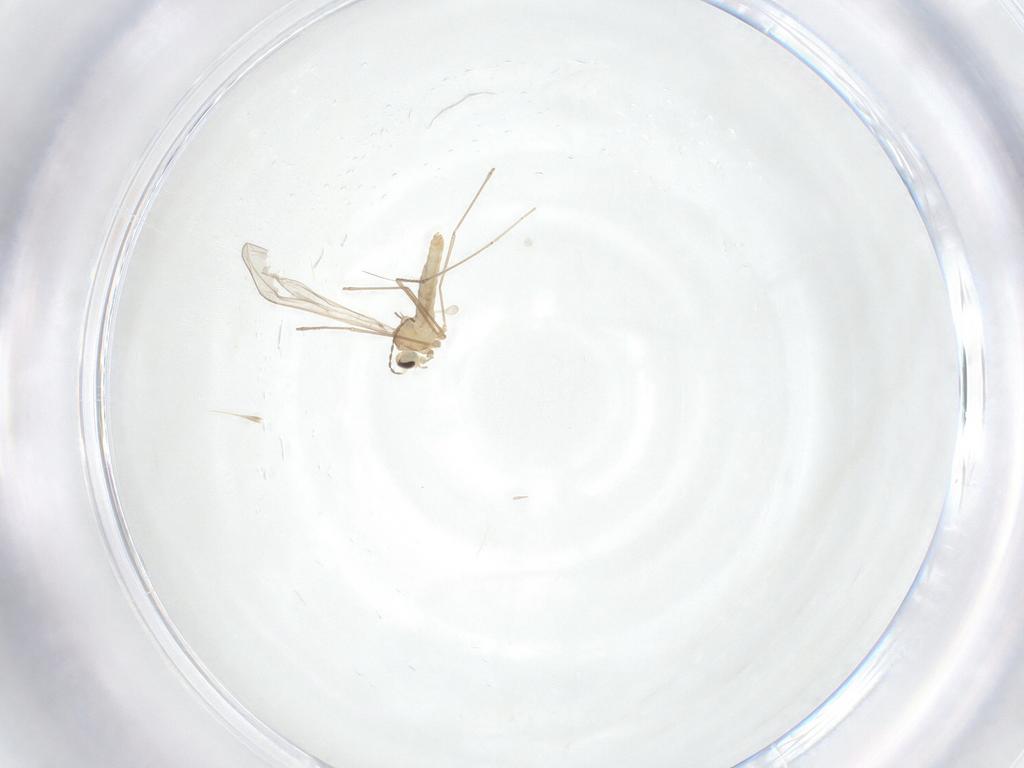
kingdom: Animalia
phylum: Arthropoda
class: Insecta
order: Diptera
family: Cecidomyiidae
